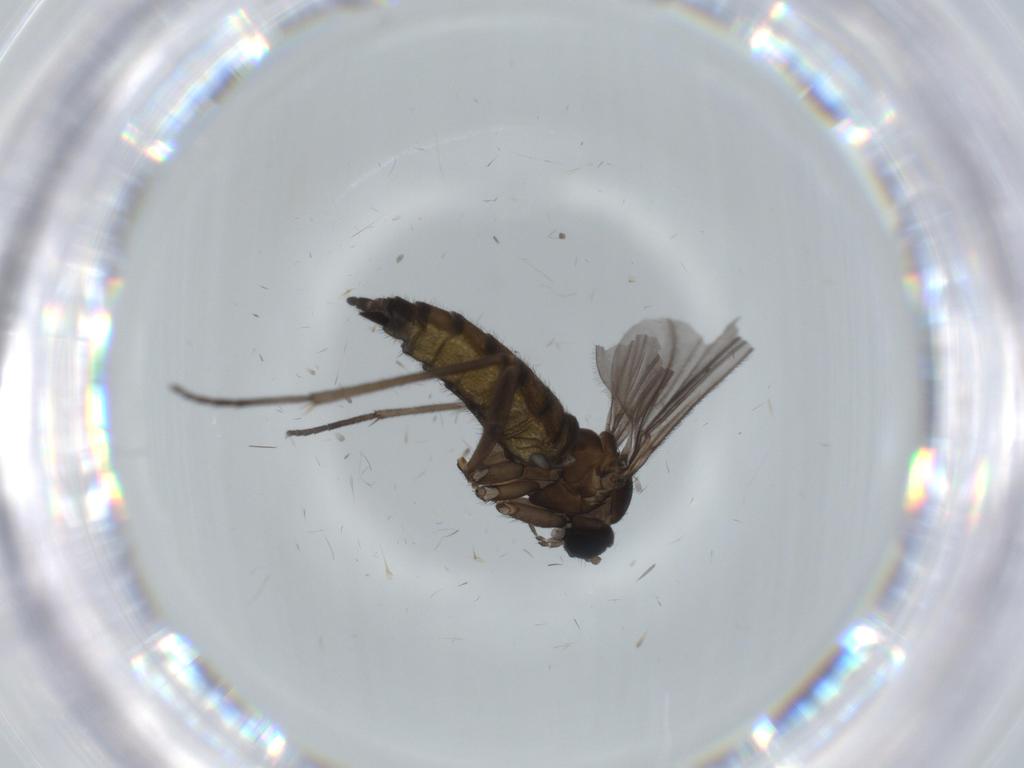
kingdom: Animalia
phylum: Arthropoda
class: Insecta
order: Diptera
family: Sciaridae
